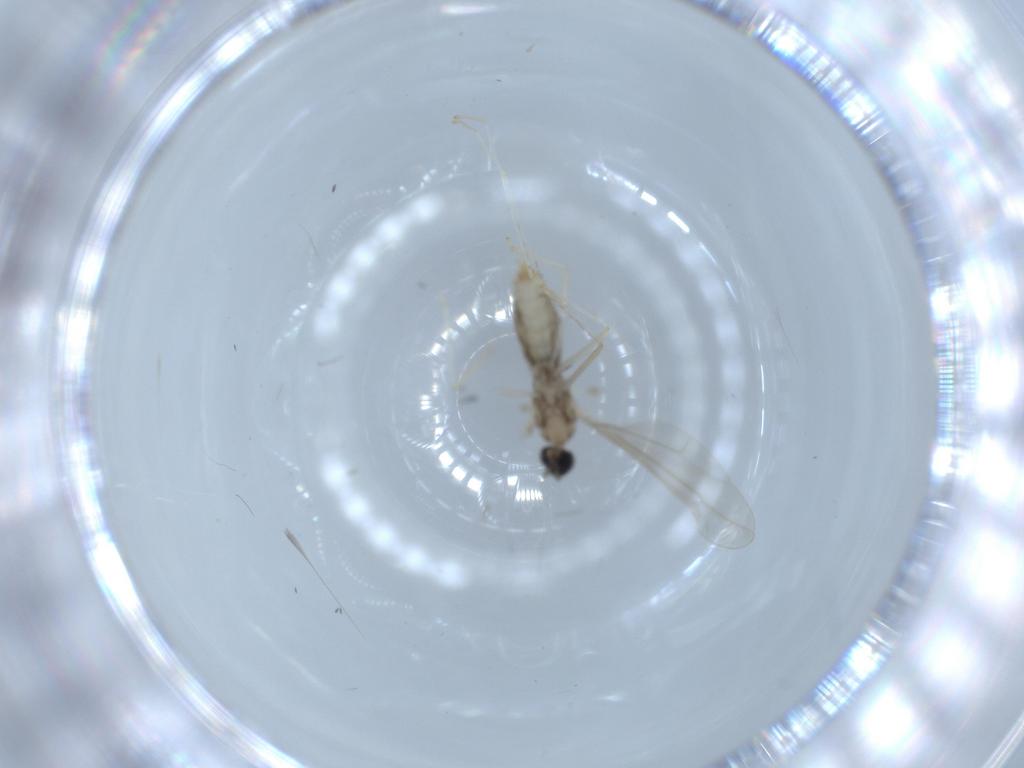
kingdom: Animalia
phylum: Arthropoda
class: Insecta
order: Diptera
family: Cecidomyiidae
